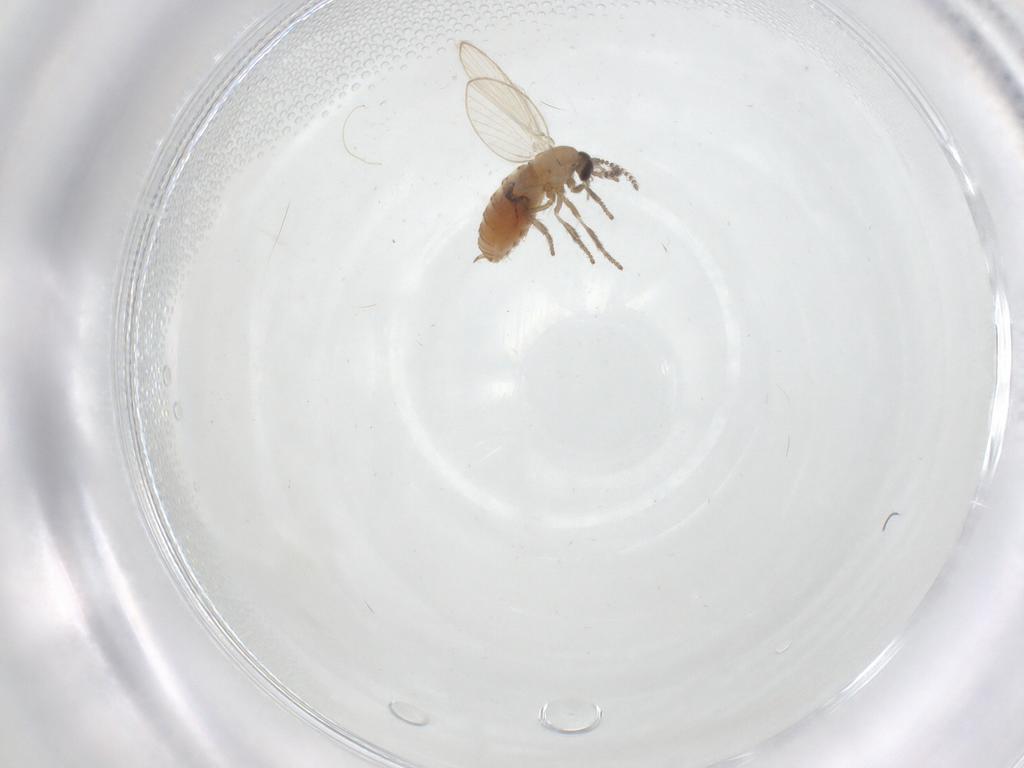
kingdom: Animalia
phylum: Arthropoda
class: Insecta
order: Diptera
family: Psychodidae
